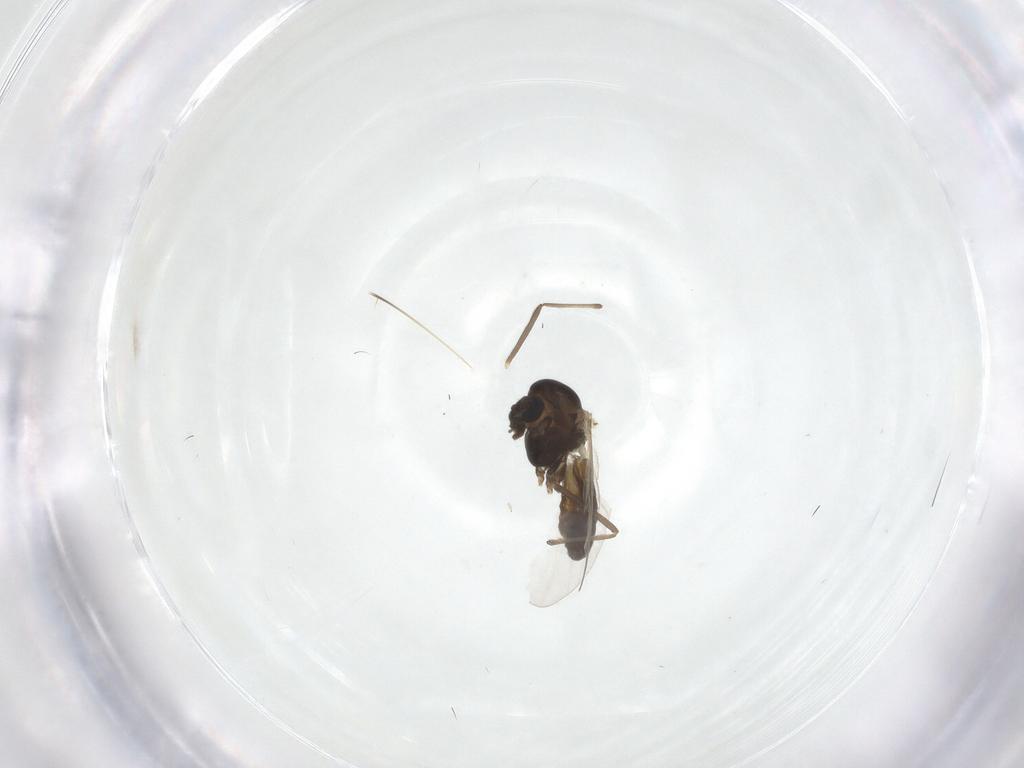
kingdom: Animalia
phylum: Arthropoda
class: Insecta
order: Diptera
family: Chironomidae
